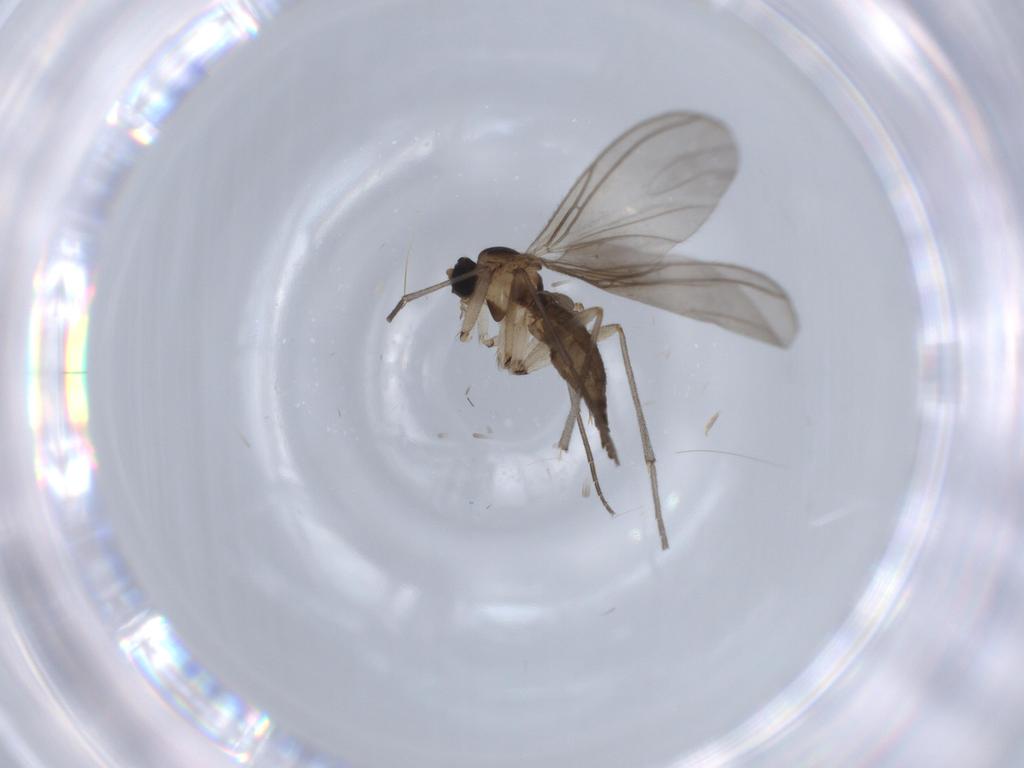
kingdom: Animalia
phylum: Arthropoda
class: Insecta
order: Diptera
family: Sciaridae
